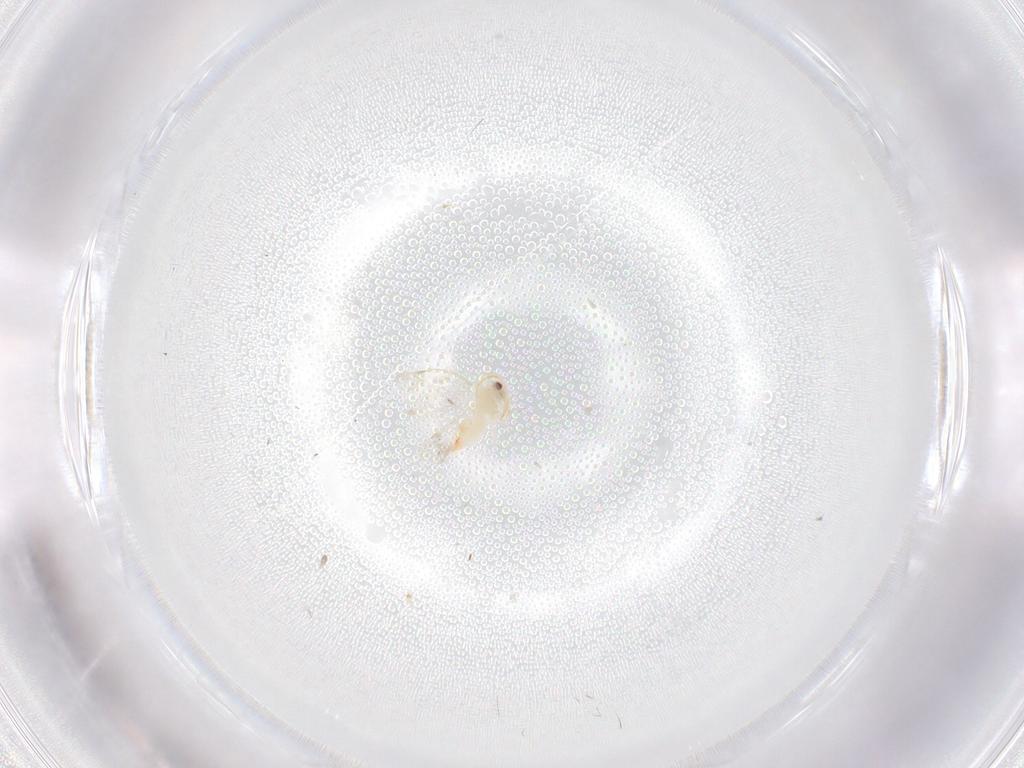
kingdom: Animalia
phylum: Arthropoda
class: Insecta
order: Hemiptera
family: Aleyrodidae
